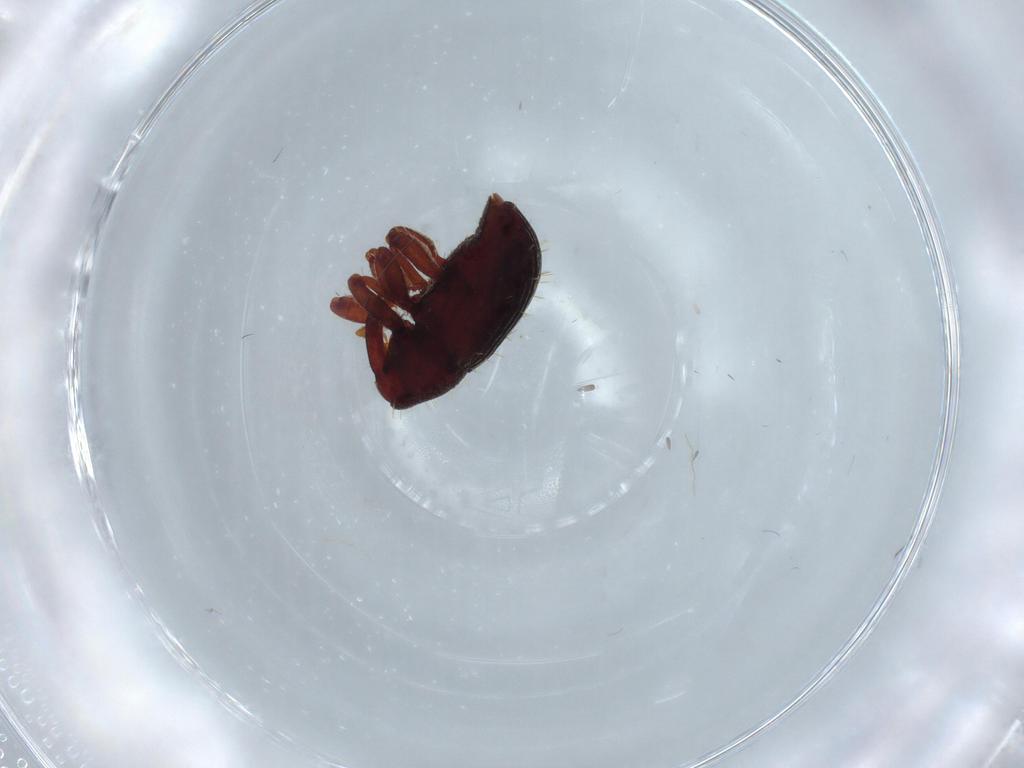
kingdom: Animalia
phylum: Arthropoda
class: Insecta
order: Coleoptera
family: Curculionidae
